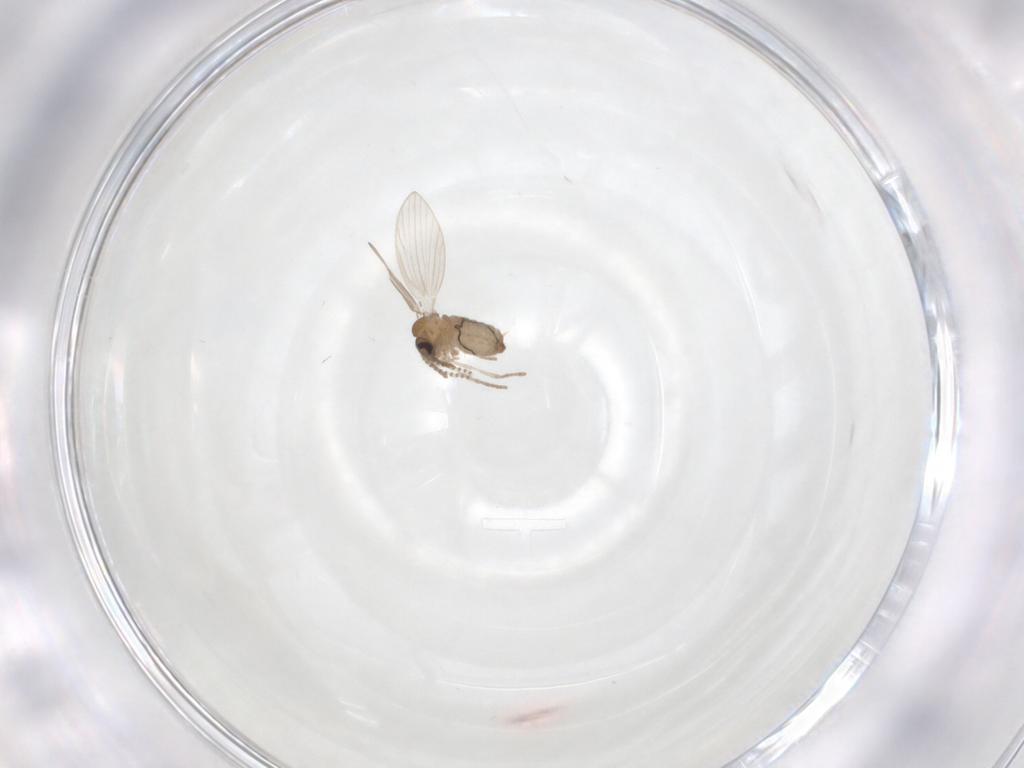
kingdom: Animalia
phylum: Arthropoda
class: Insecta
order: Diptera
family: Psychodidae
